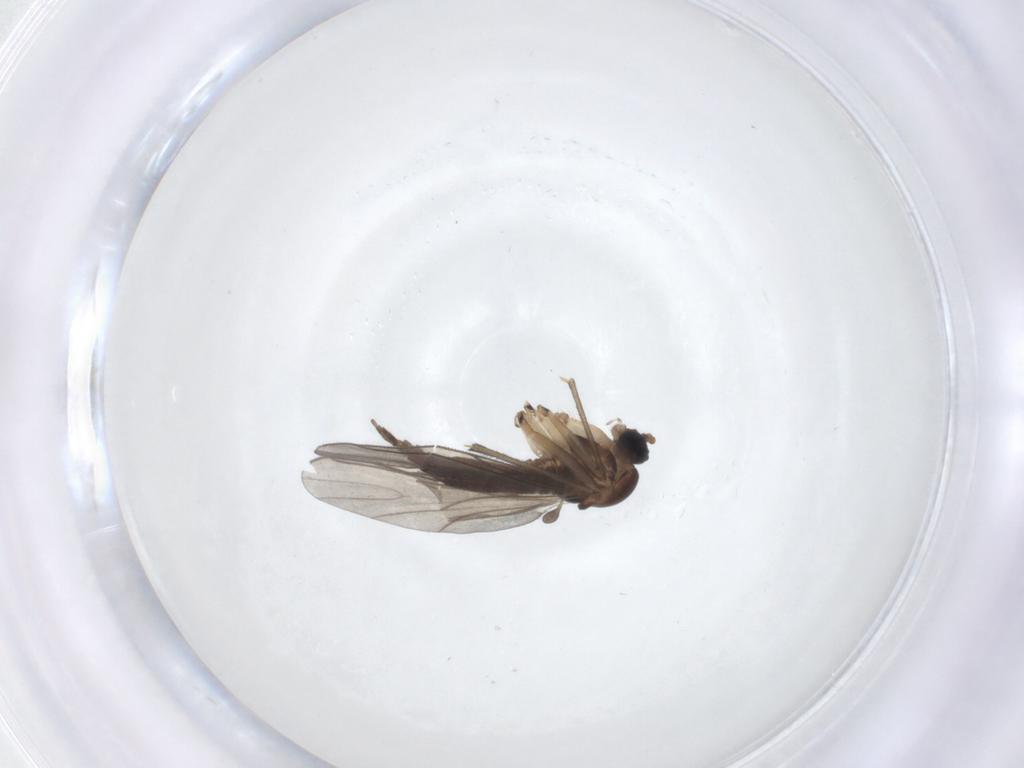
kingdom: Animalia
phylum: Arthropoda
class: Insecta
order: Diptera
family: Sciaridae
